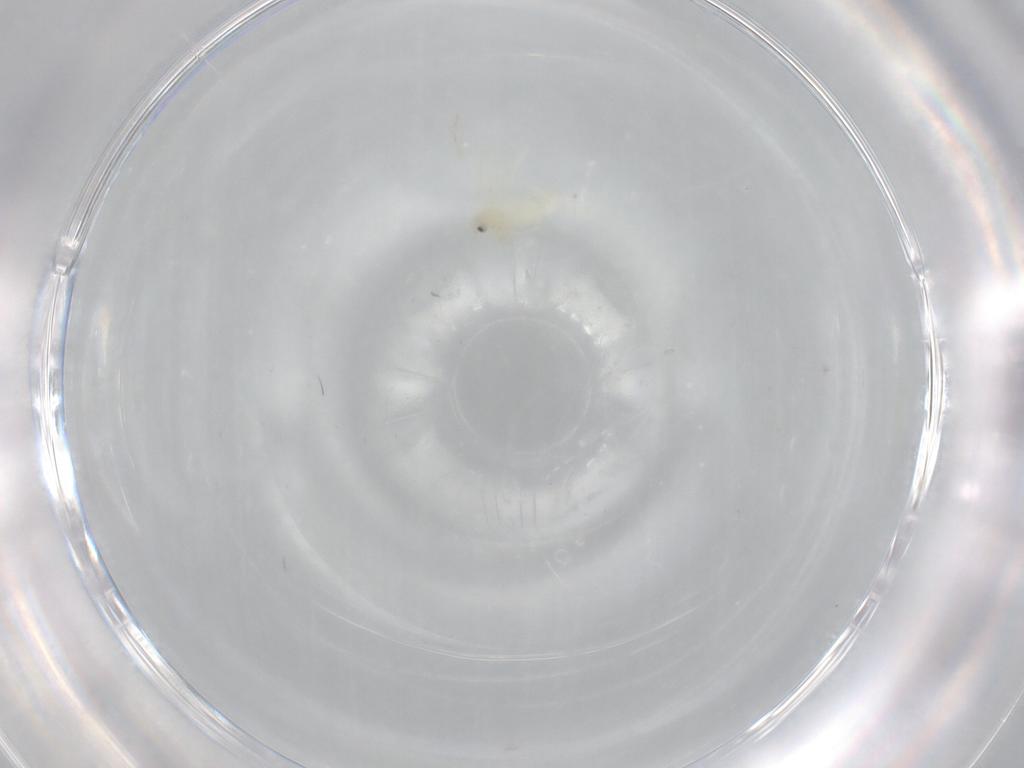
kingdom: Animalia
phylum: Arthropoda
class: Insecta
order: Hemiptera
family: Aleyrodidae
